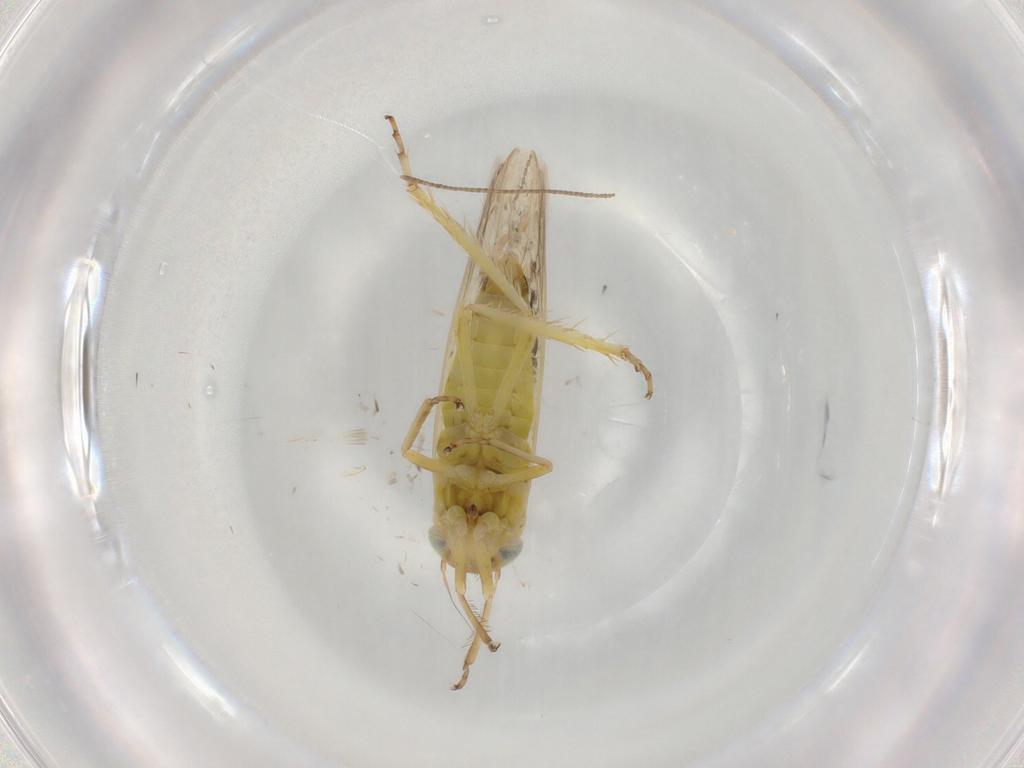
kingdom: Animalia
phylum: Arthropoda
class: Insecta
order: Hemiptera
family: Cicadellidae
